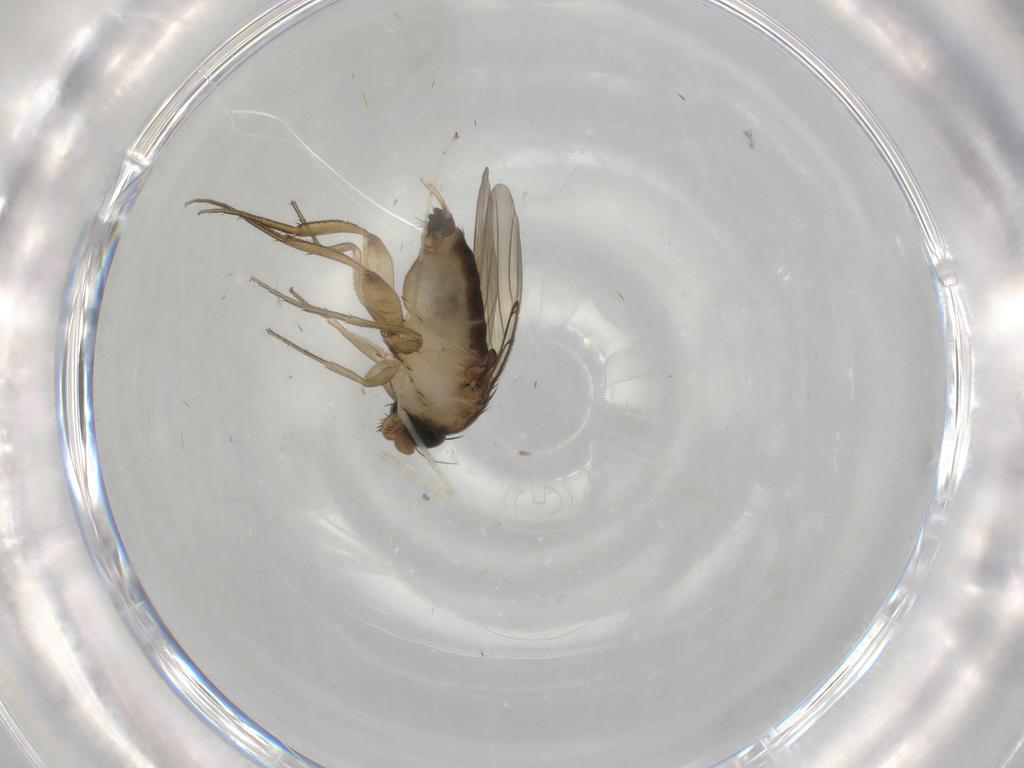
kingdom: Animalia
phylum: Arthropoda
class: Insecta
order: Diptera
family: Phoridae
